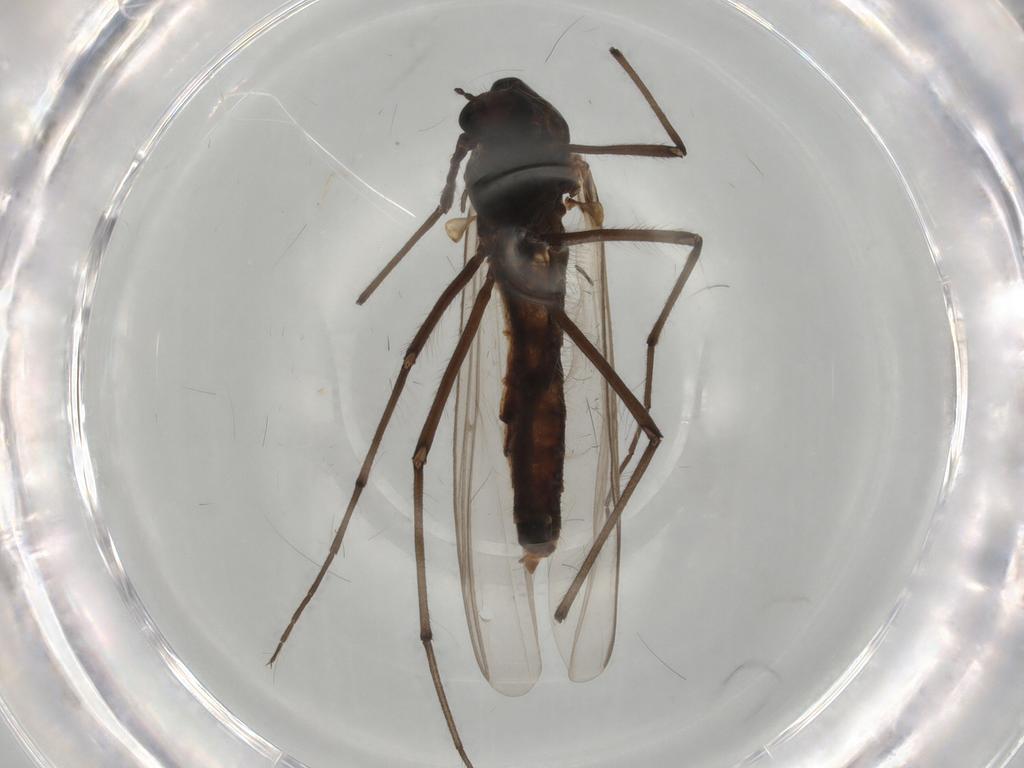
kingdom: Animalia
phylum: Arthropoda
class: Insecta
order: Diptera
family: Chironomidae
